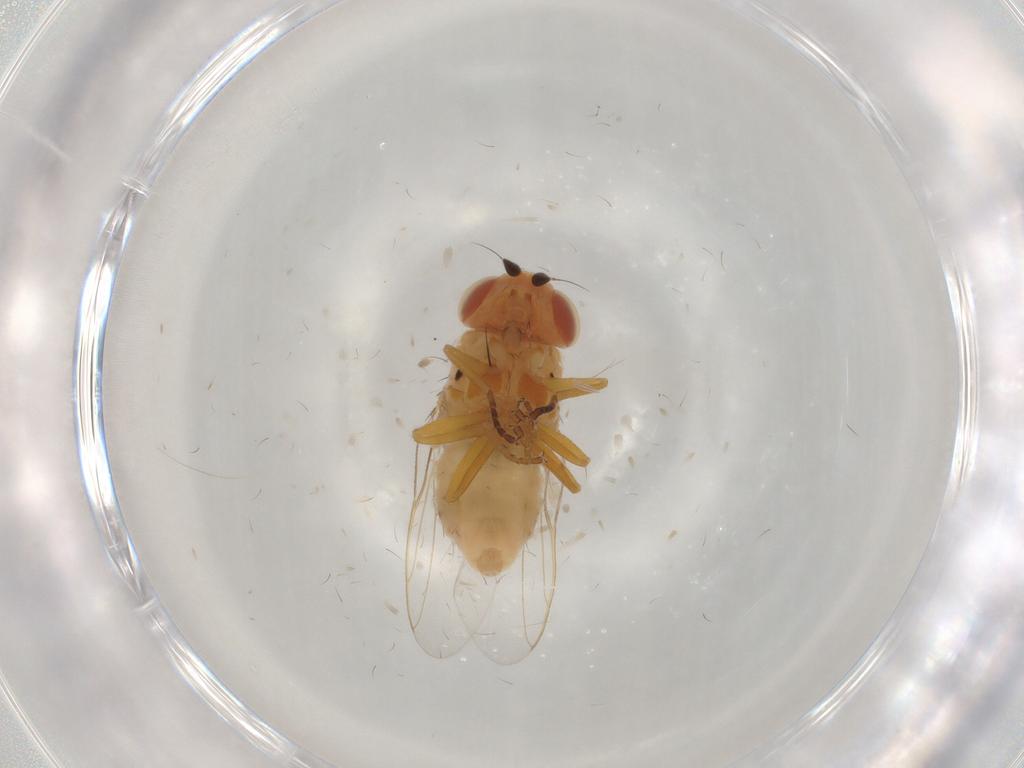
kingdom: Animalia
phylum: Arthropoda
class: Insecta
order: Diptera
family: Chloropidae
